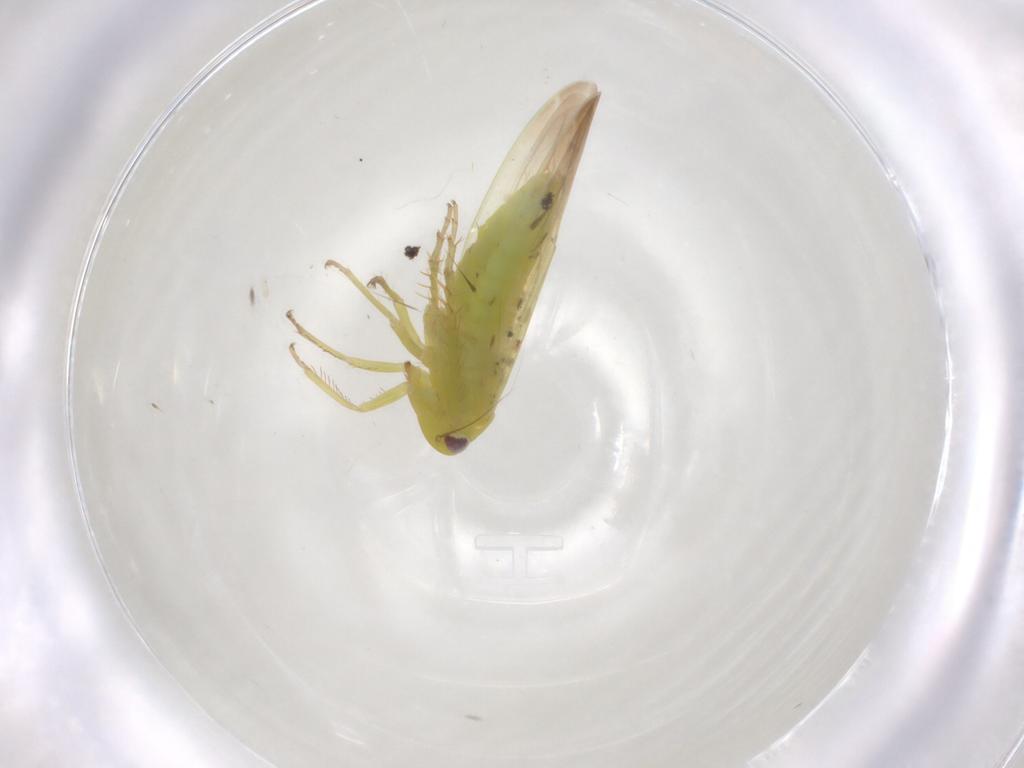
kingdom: Animalia
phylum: Arthropoda
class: Insecta
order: Hemiptera
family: Cicadellidae
